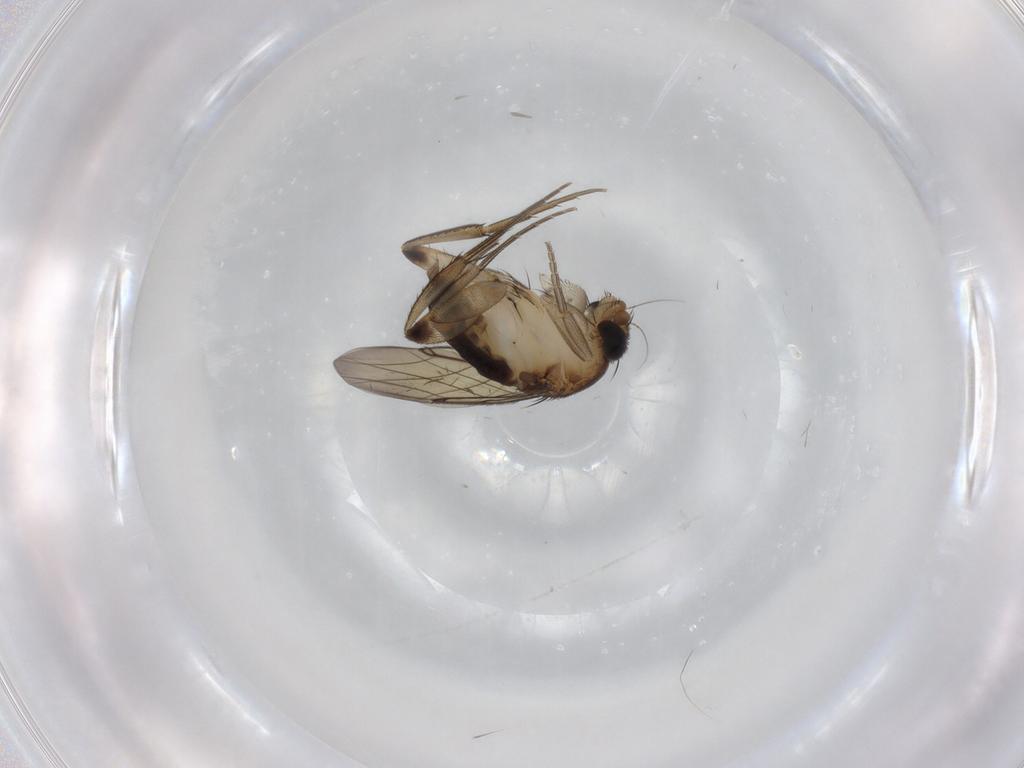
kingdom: Animalia
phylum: Arthropoda
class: Insecta
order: Diptera
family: Phoridae
